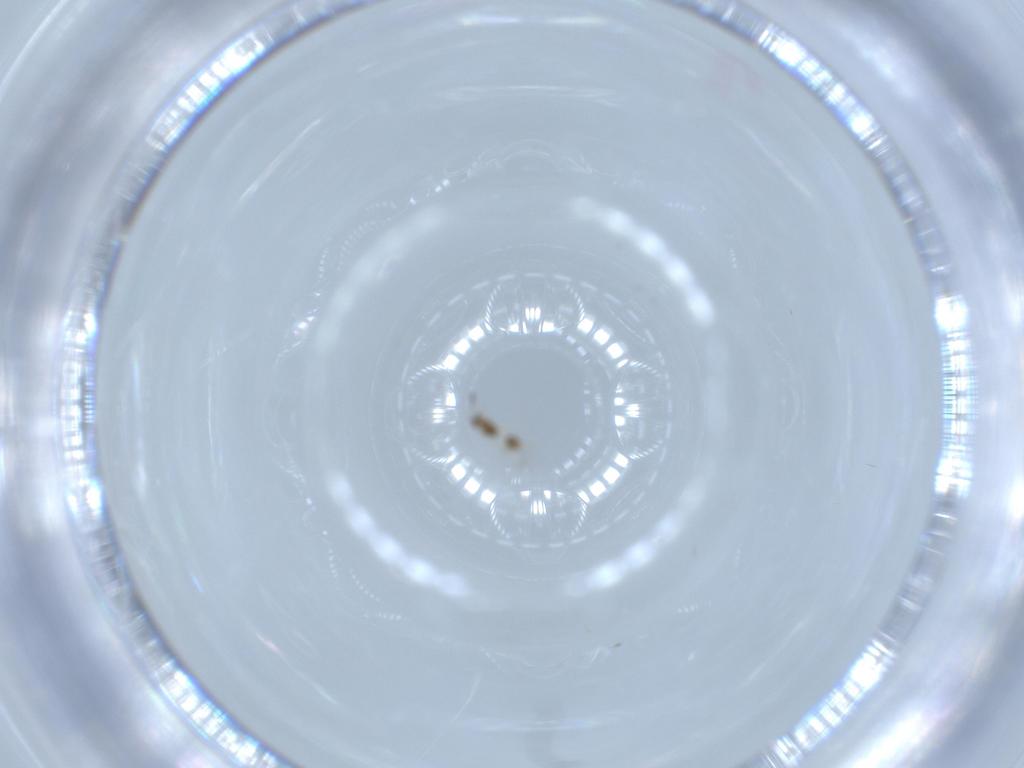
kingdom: Animalia
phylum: Arthropoda
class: Insecta
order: Hymenoptera
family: Mymarommatidae
